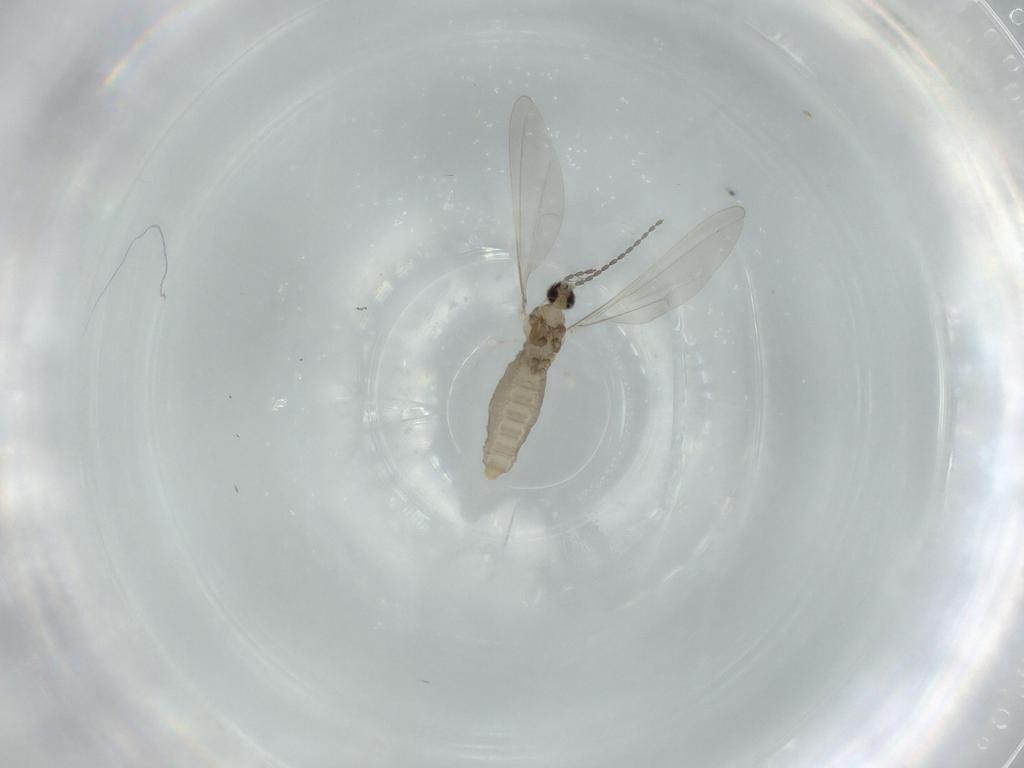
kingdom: Animalia
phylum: Arthropoda
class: Insecta
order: Diptera
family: Cecidomyiidae
